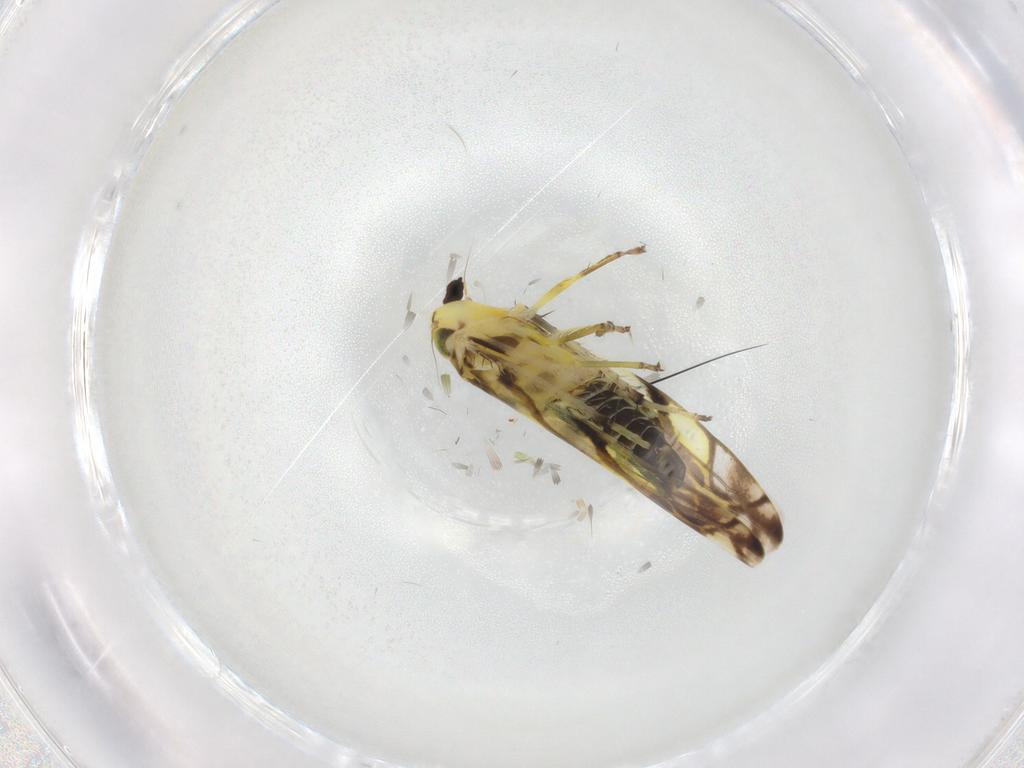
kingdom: Animalia
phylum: Arthropoda
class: Insecta
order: Hemiptera
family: Cicadellidae
